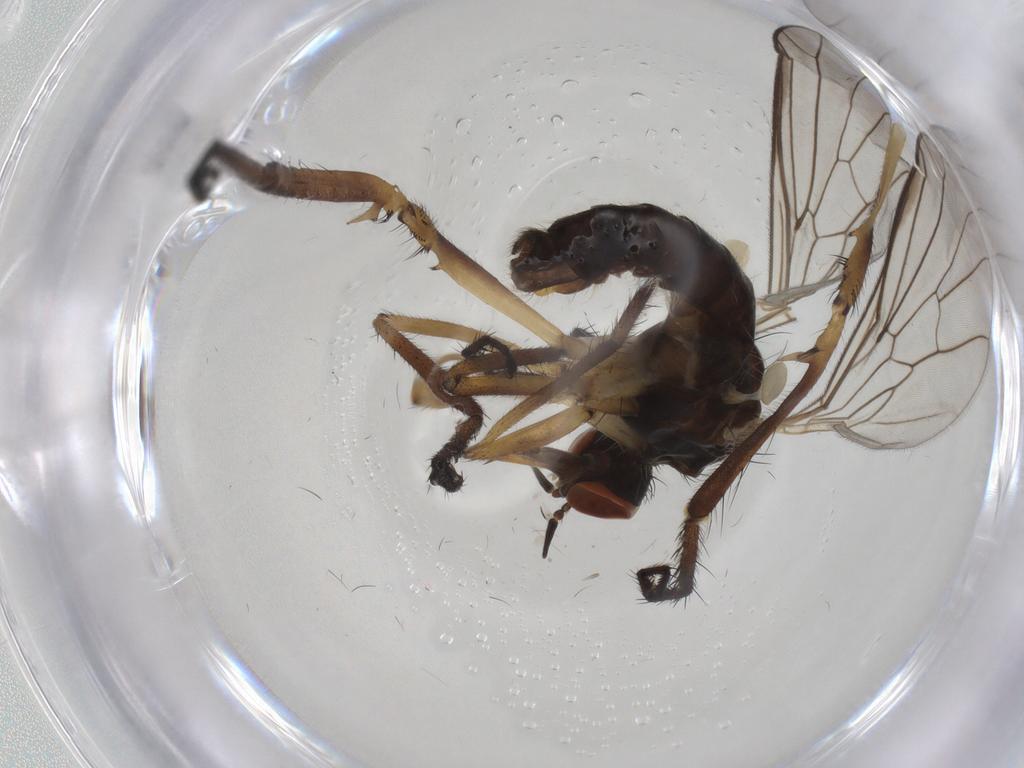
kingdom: Animalia
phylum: Arthropoda
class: Insecta
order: Diptera
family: Empididae
